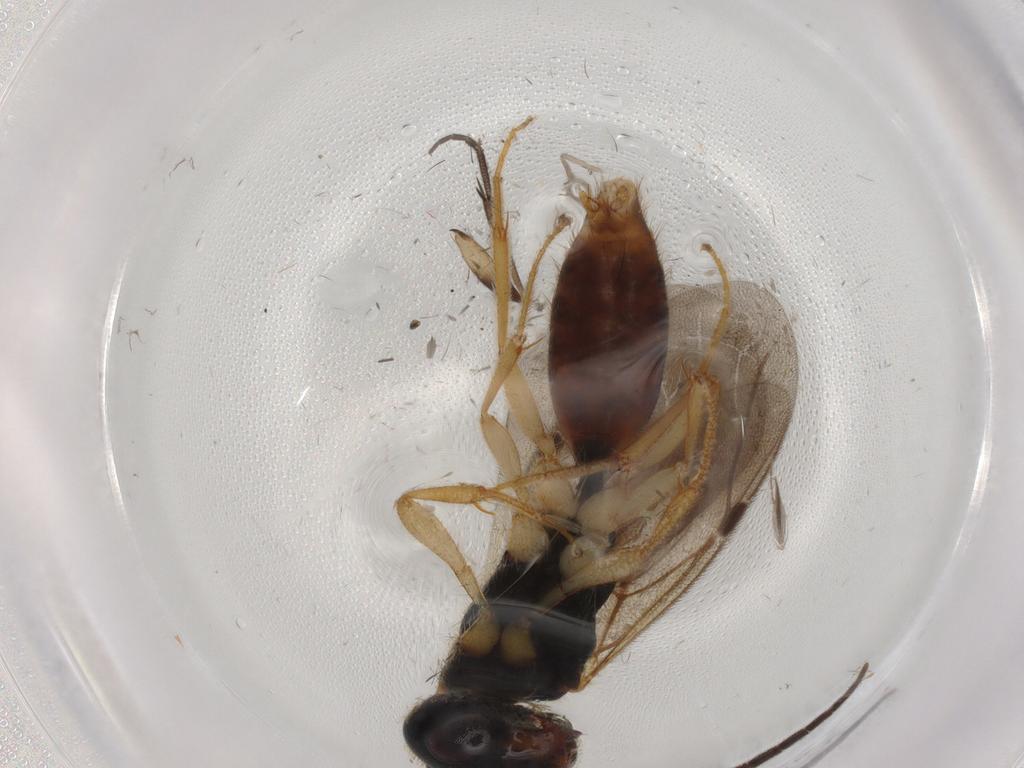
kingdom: Animalia
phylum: Arthropoda
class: Insecta
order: Hymenoptera
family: Bethylidae
